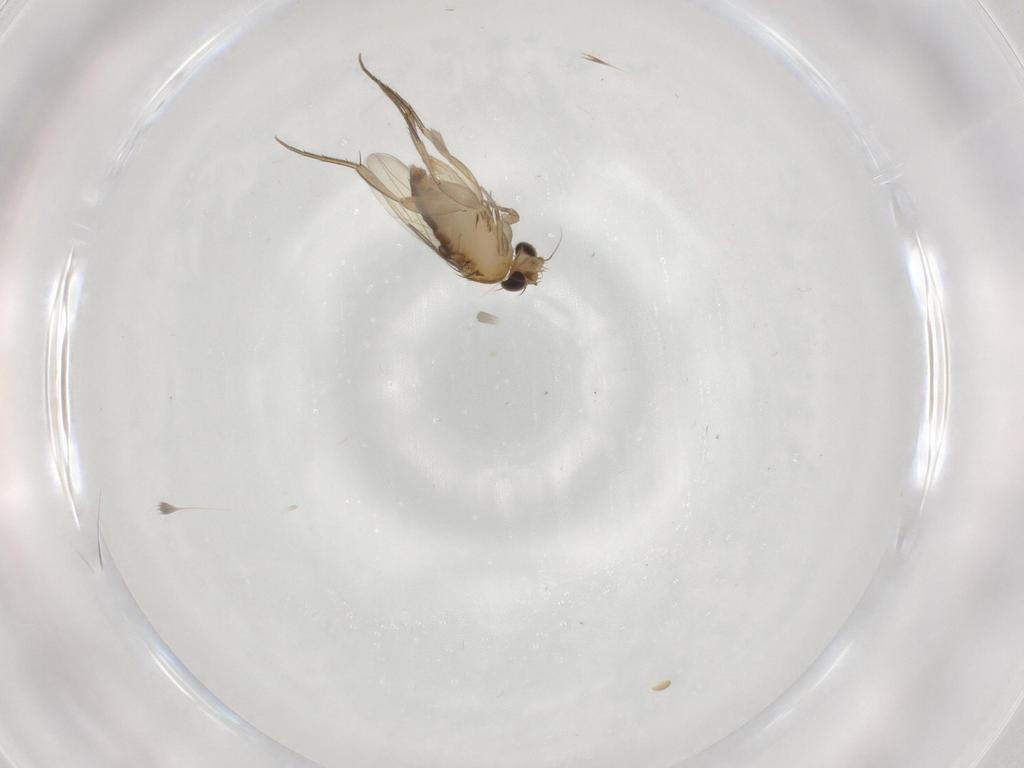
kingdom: Animalia
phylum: Arthropoda
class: Insecta
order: Diptera
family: Phoridae
